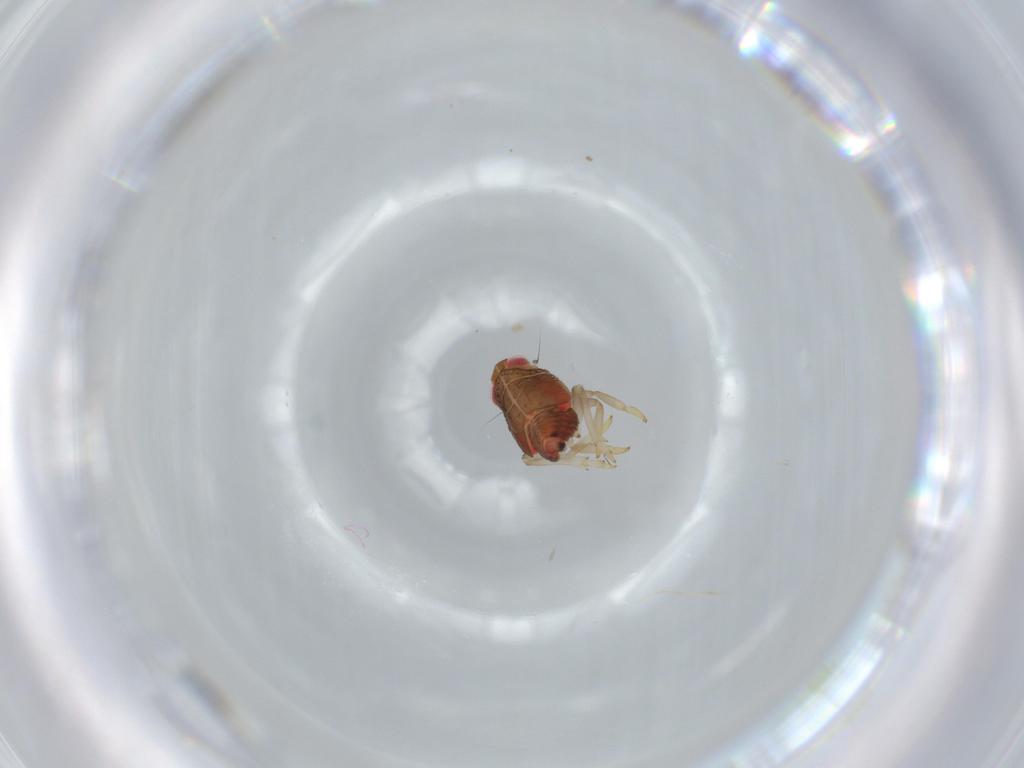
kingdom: Animalia
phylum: Arthropoda
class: Insecta
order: Hemiptera
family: Issidae
